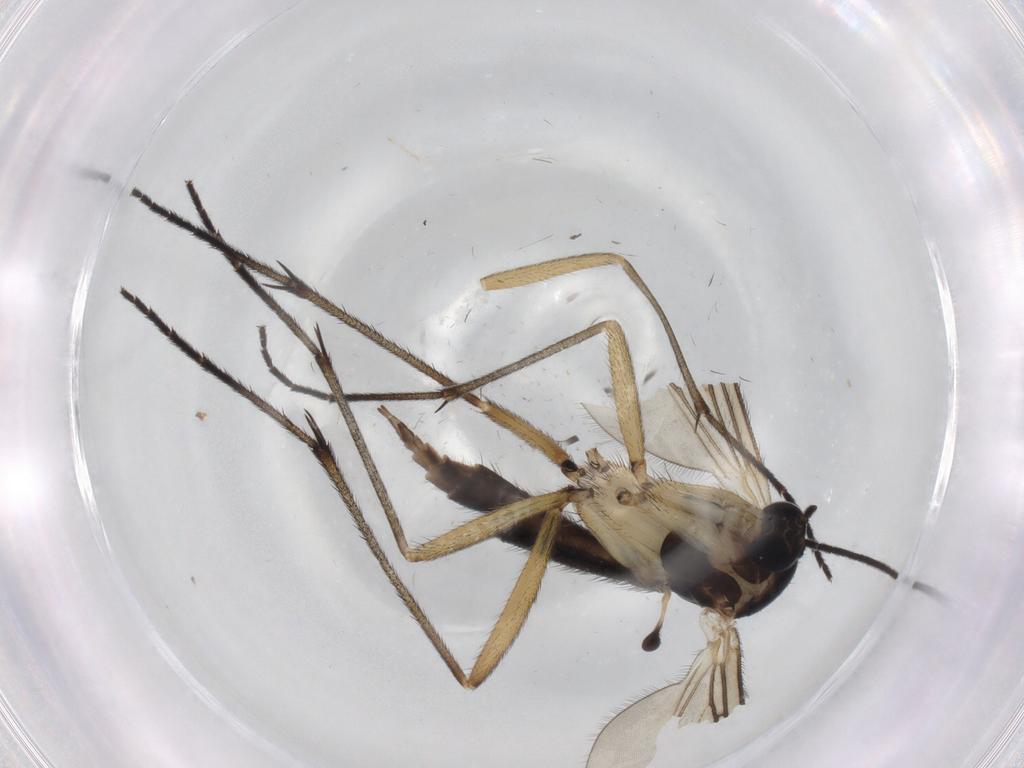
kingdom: Animalia
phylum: Arthropoda
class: Insecta
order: Diptera
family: Sciaridae
